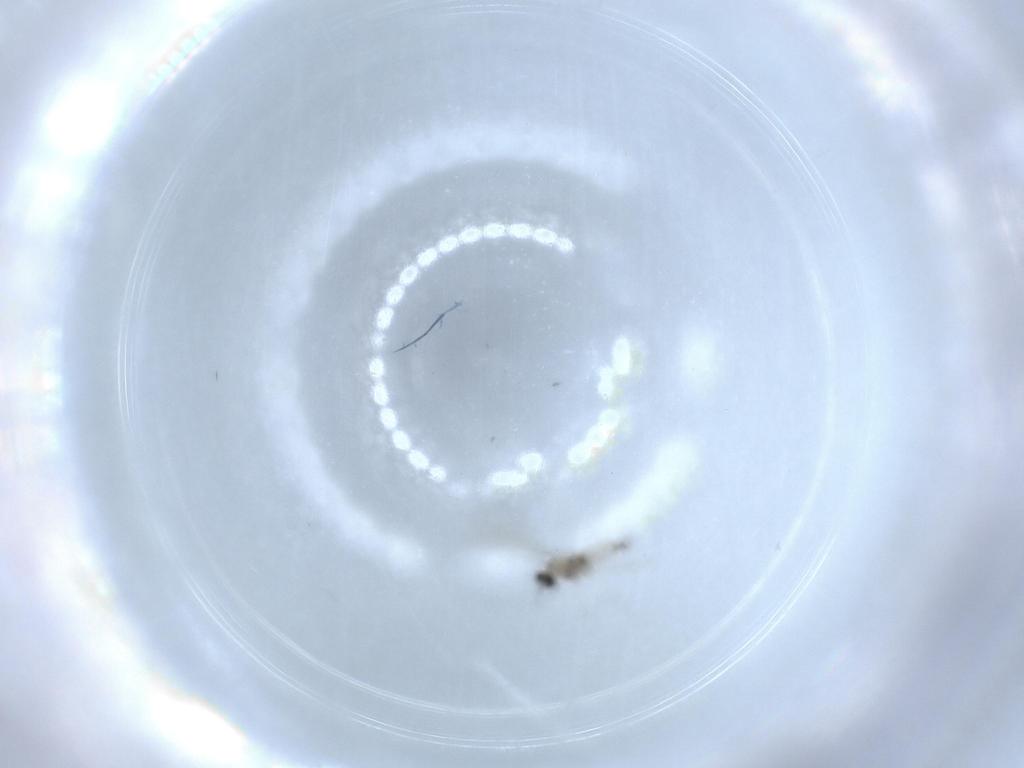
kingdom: Animalia
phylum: Arthropoda
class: Insecta
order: Diptera
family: Cecidomyiidae
